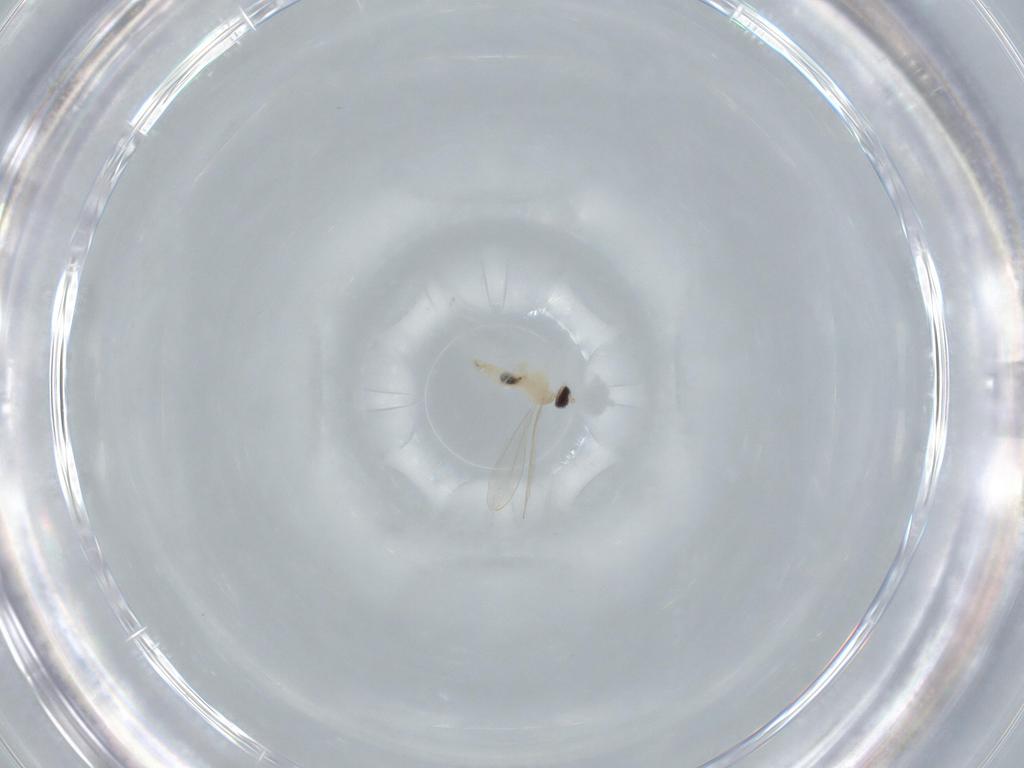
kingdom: Animalia
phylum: Arthropoda
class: Insecta
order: Diptera
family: Cecidomyiidae
